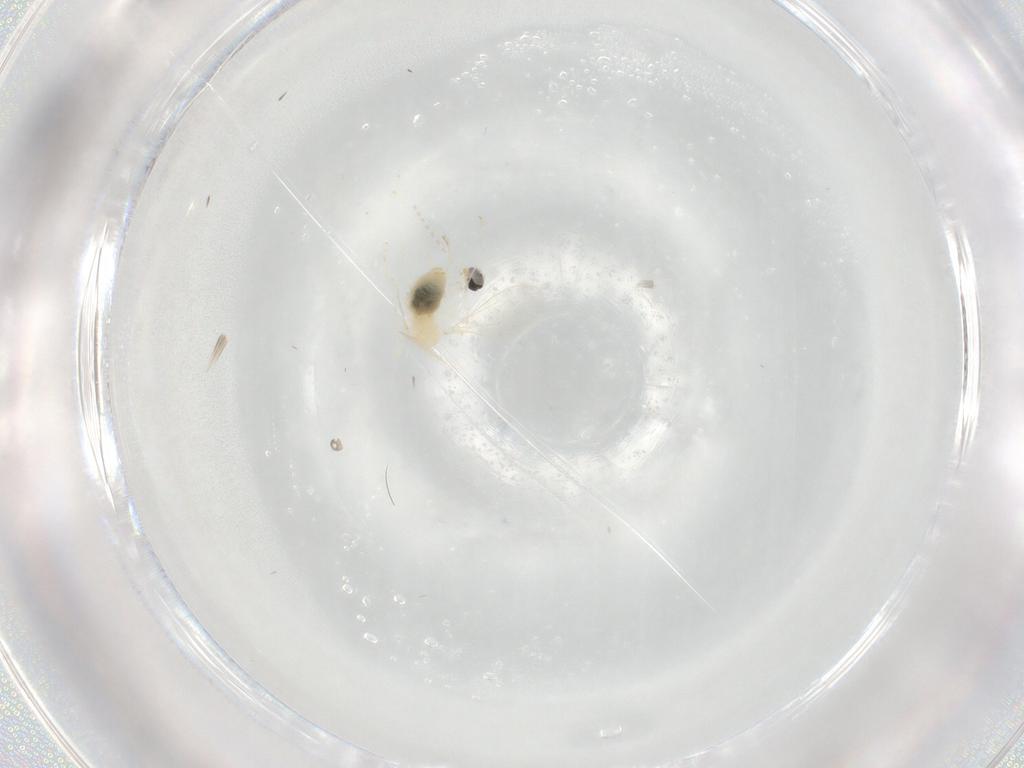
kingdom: Animalia
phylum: Arthropoda
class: Insecta
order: Diptera
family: Cecidomyiidae
